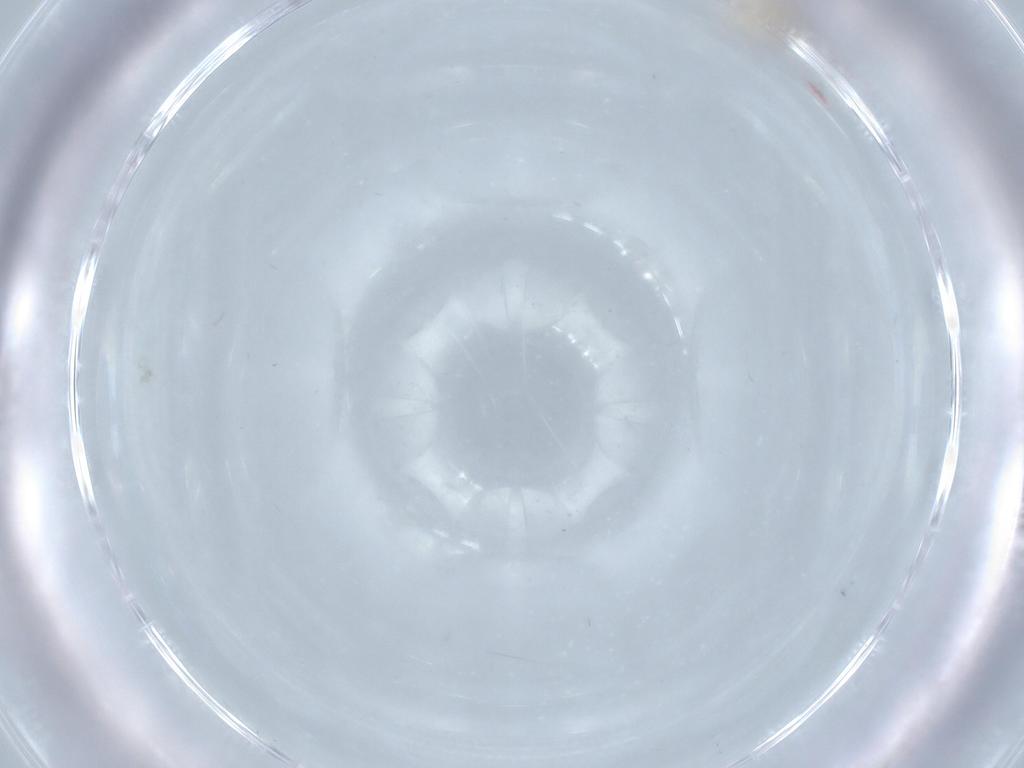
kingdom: Animalia
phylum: Arthropoda
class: Insecta
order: Diptera
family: Cecidomyiidae
